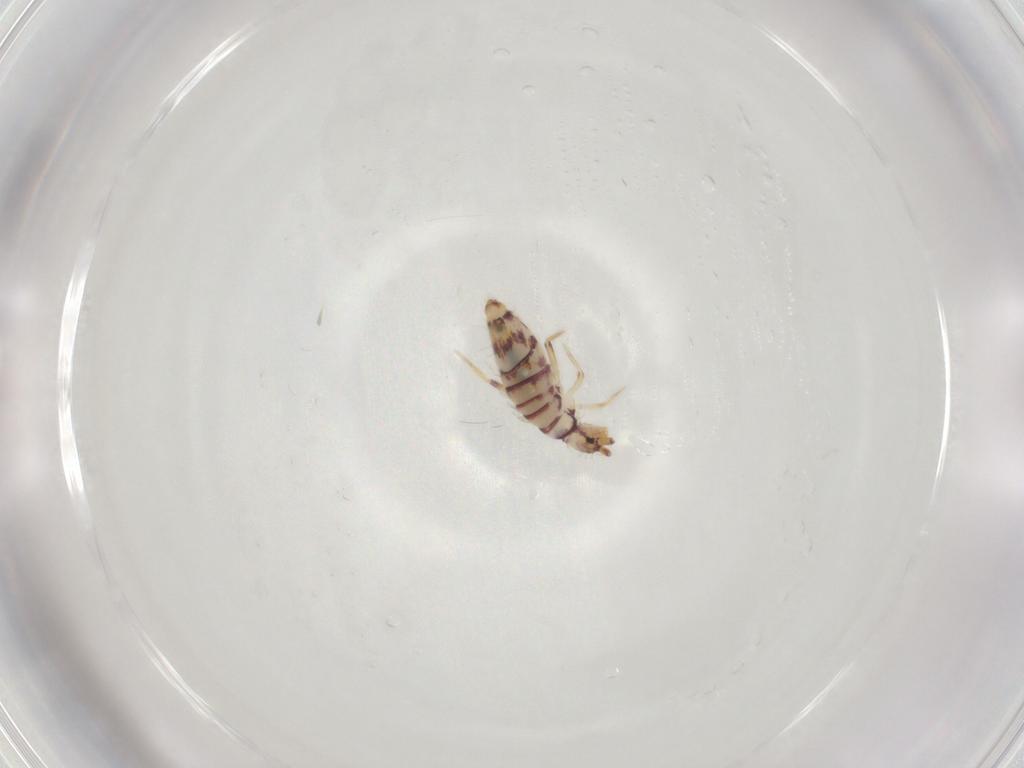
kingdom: Animalia
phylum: Arthropoda
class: Collembola
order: Entomobryomorpha
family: Entomobryidae
